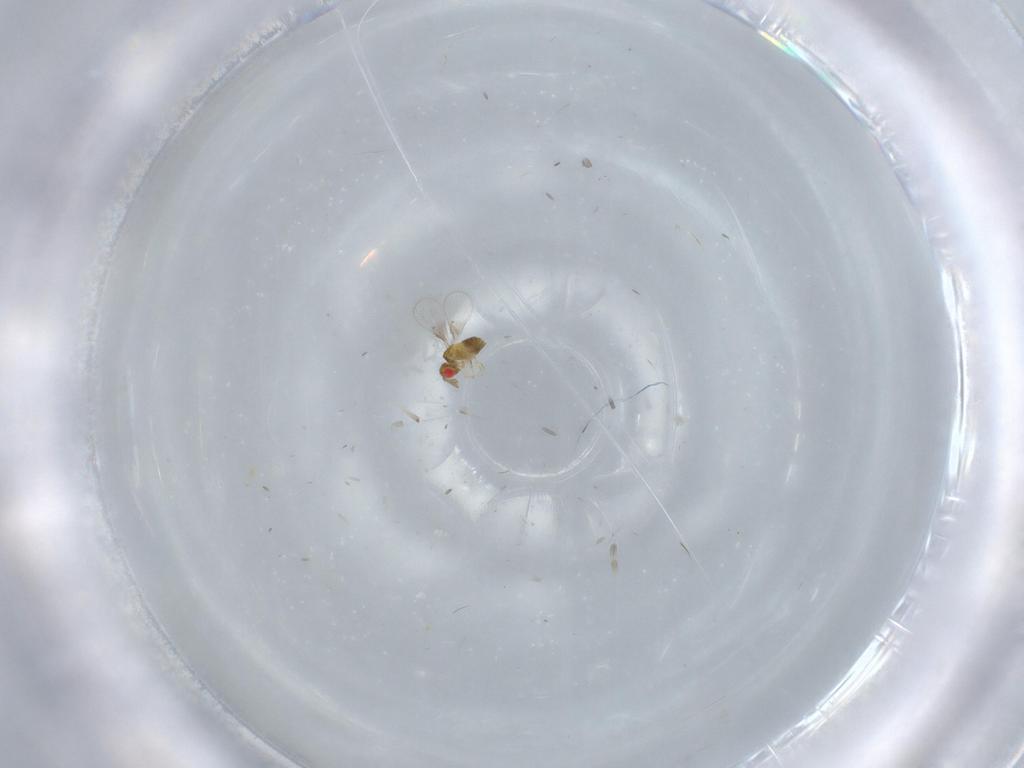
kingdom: Animalia
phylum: Arthropoda
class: Insecta
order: Hymenoptera
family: Trichogrammatidae
